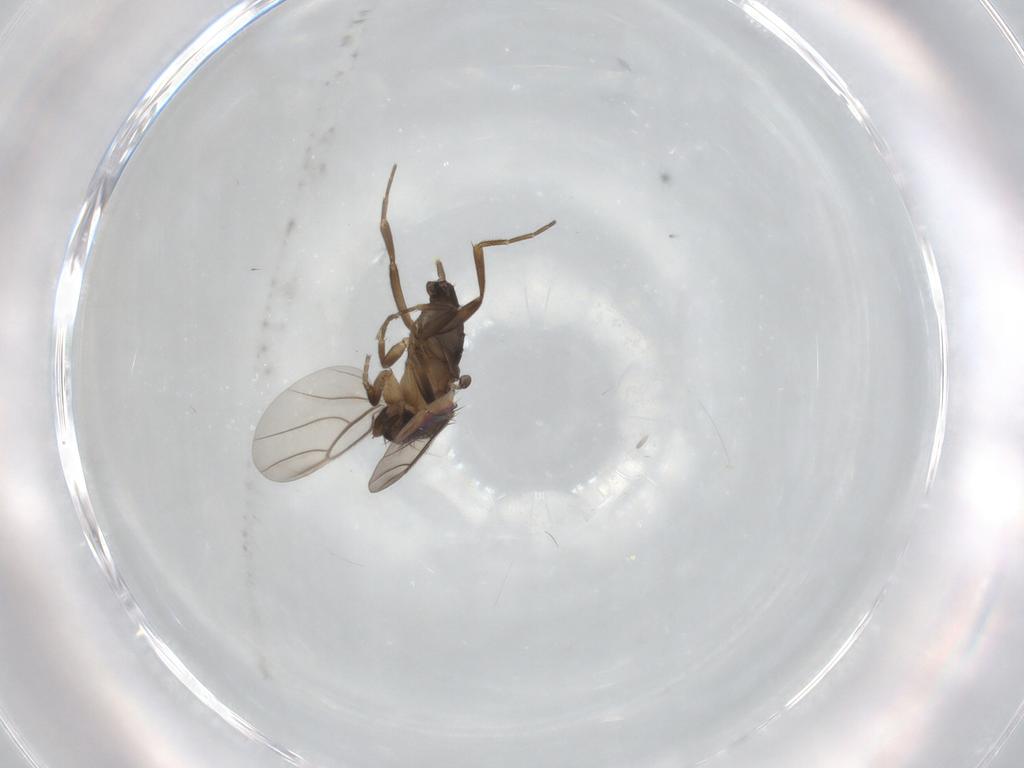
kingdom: Animalia
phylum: Arthropoda
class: Insecta
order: Diptera
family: Phoridae
